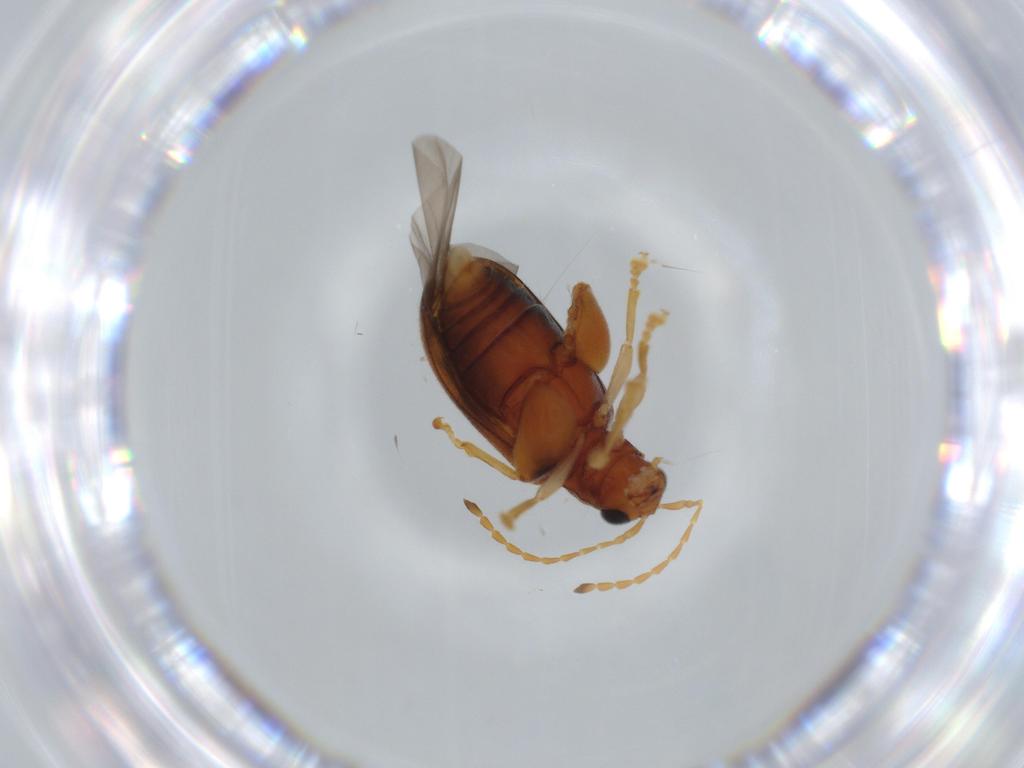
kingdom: Animalia
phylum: Arthropoda
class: Insecta
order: Coleoptera
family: Chrysomelidae
